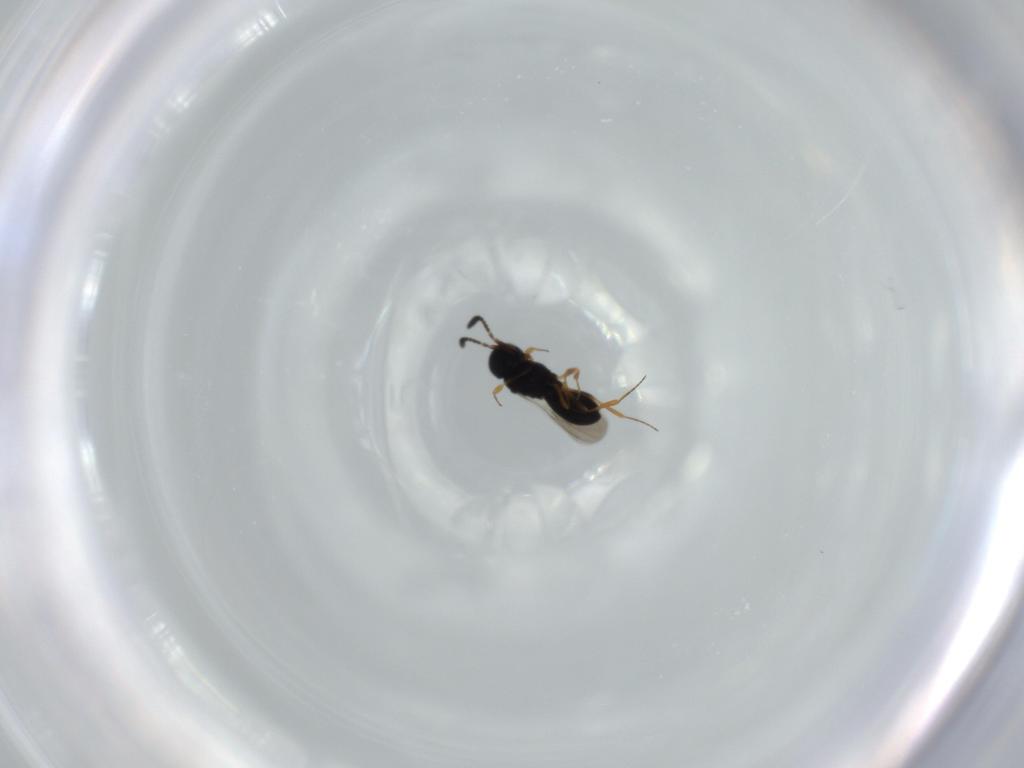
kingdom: Animalia
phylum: Arthropoda
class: Insecta
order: Hymenoptera
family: Scelionidae
